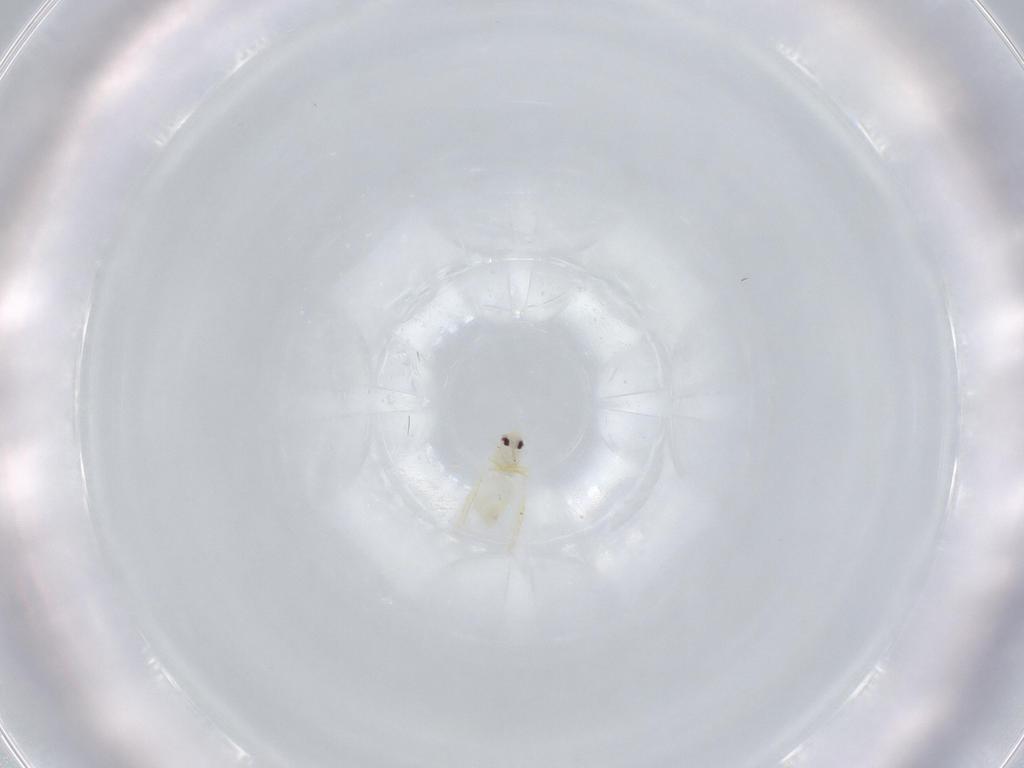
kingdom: Animalia
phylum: Arthropoda
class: Insecta
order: Hemiptera
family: Aleyrodidae
